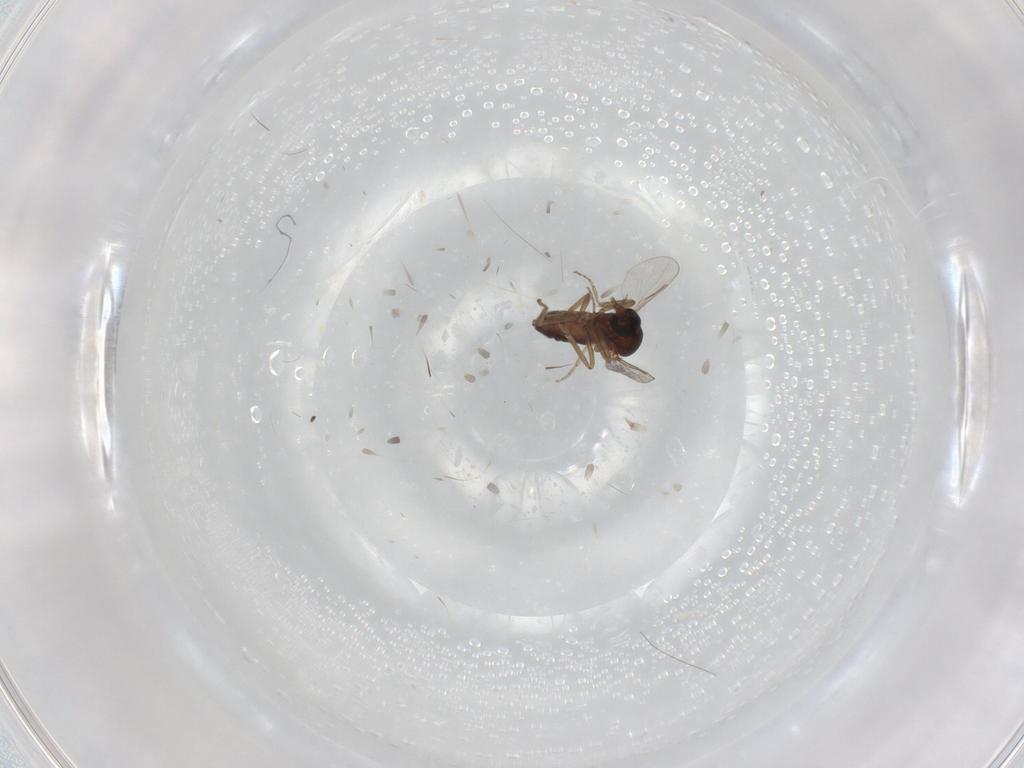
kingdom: Animalia
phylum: Arthropoda
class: Insecta
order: Diptera
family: Ceratopogonidae
